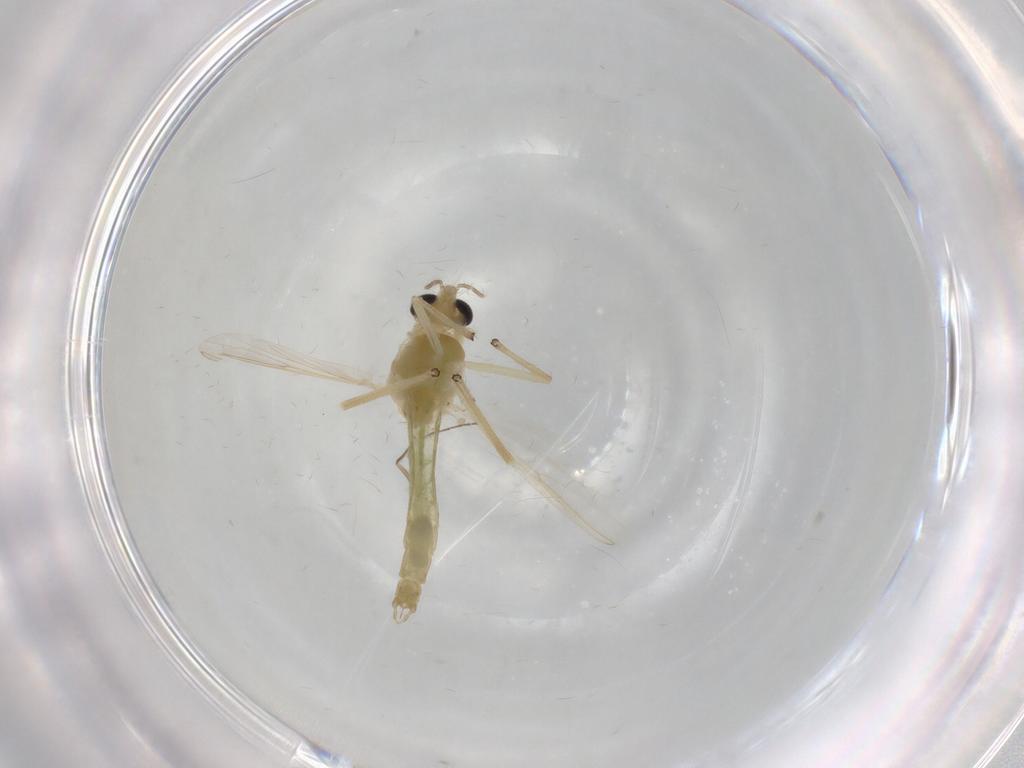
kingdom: Animalia
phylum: Arthropoda
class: Insecta
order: Diptera
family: Chironomidae
